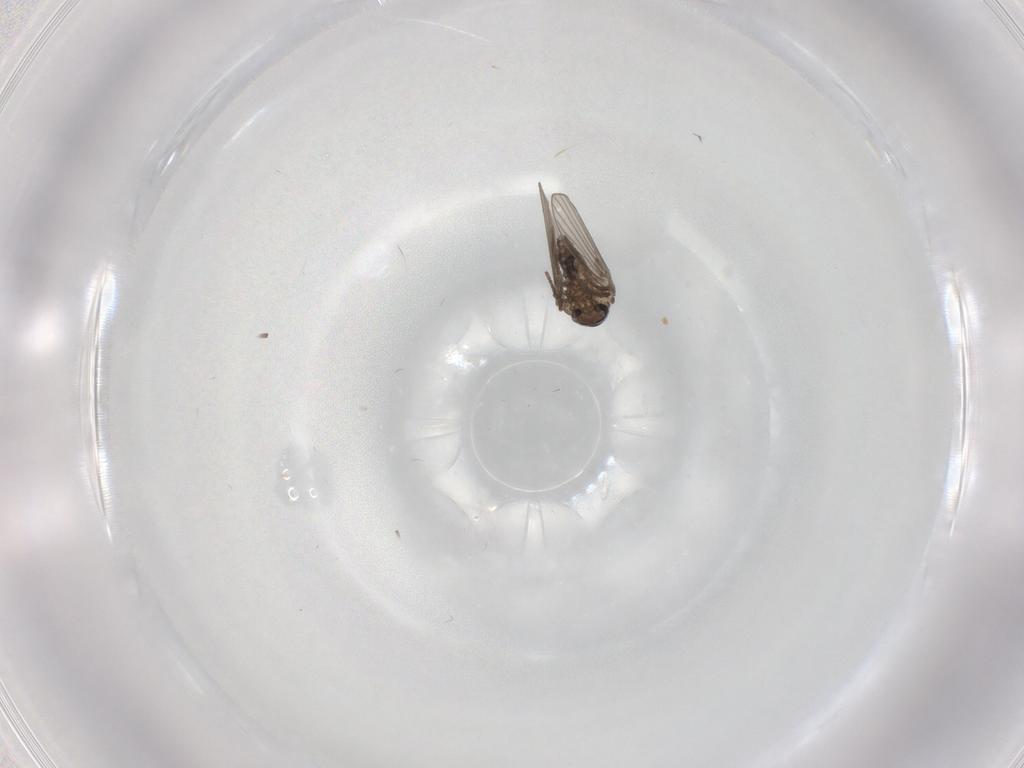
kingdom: Animalia
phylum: Arthropoda
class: Insecta
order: Diptera
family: Psychodidae
